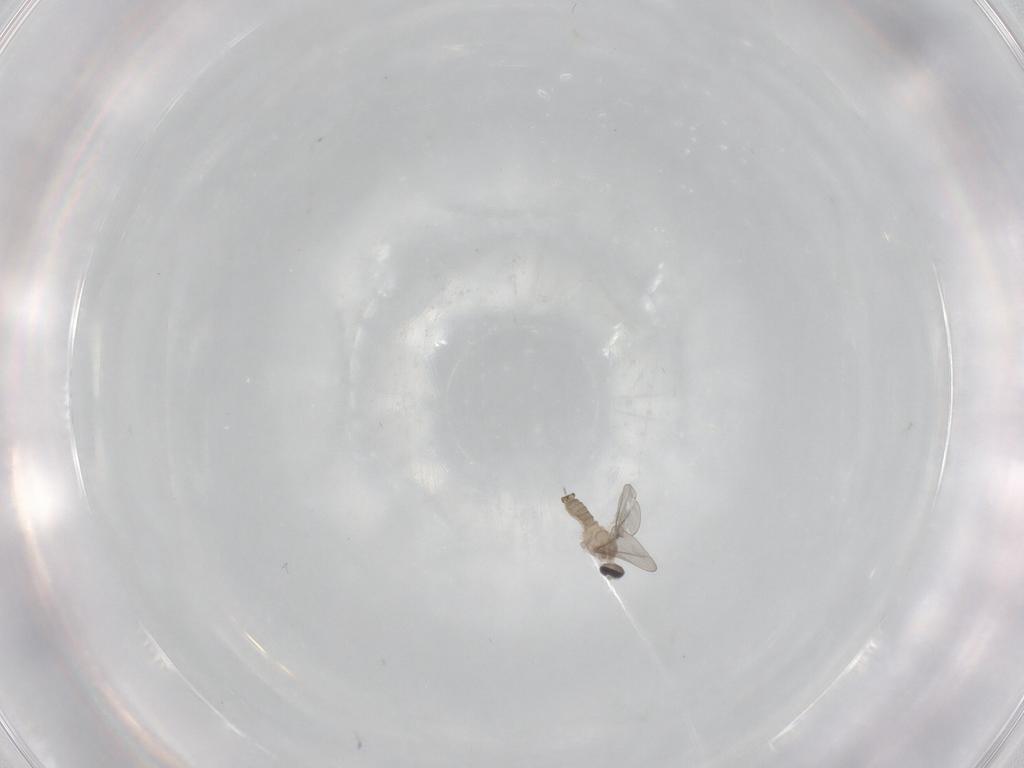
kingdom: Animalia
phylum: Arthropoda
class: Insecta
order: Diptera
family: Cecidomyiidae
